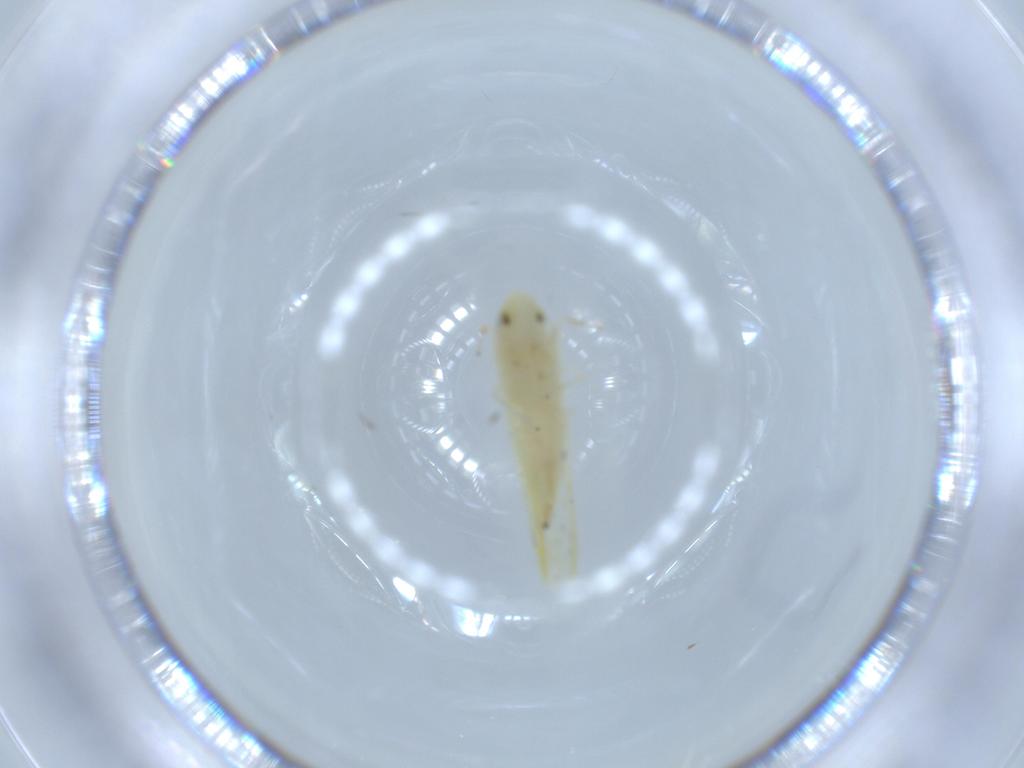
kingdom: Animalia
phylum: Arthropoda
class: Insecta
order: Hemiptera
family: Cicadellidae
